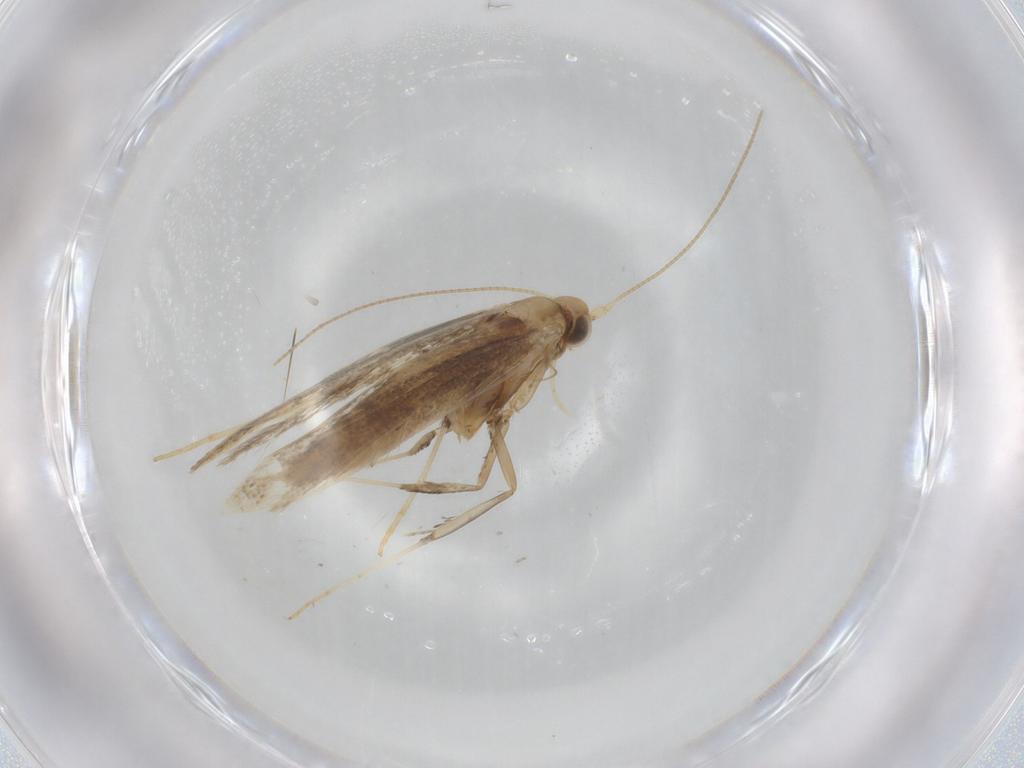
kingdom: Animalia
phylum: Arthropoda
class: Insecta
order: Lepidoptera
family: Gracillariidae
